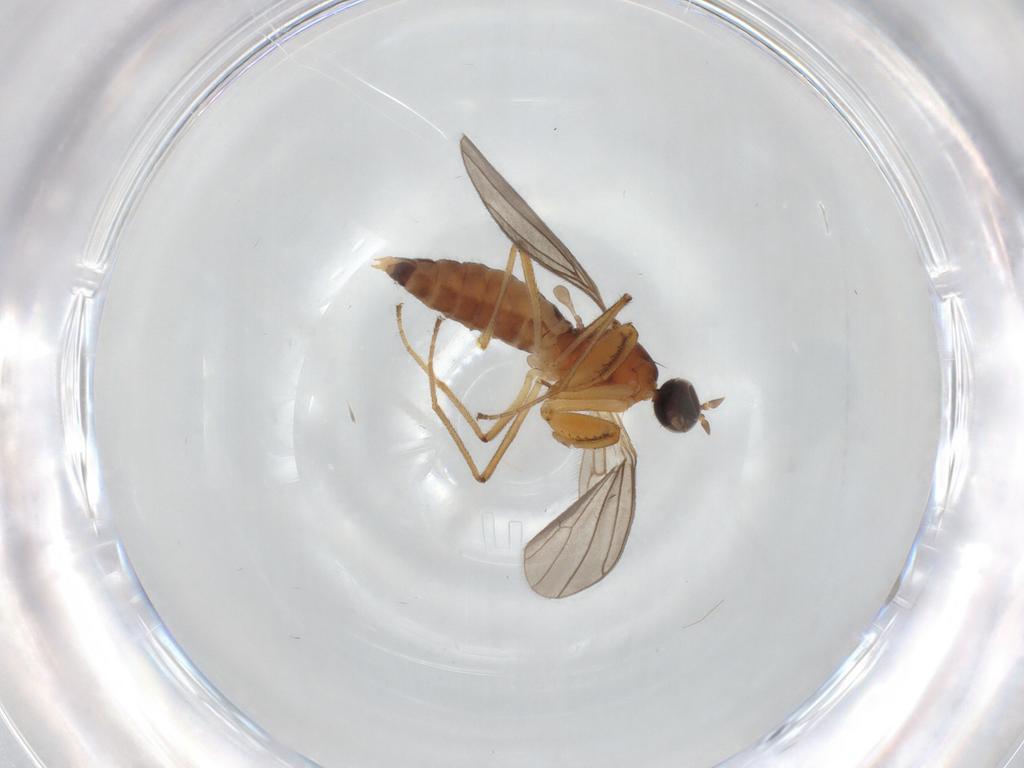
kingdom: Animalia
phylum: Arthropoda
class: Insecta
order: Diptera
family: Empididae
